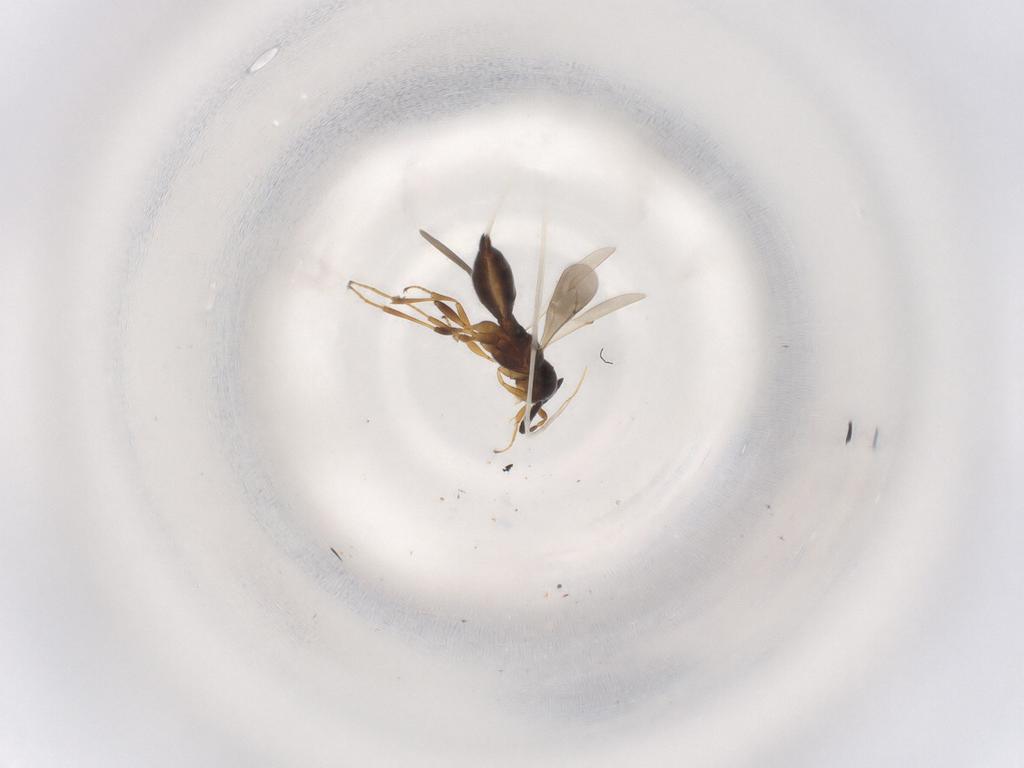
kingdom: Animalia
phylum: Arthropoda
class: Insecta
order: Hymenoptera
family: Scelionidae
